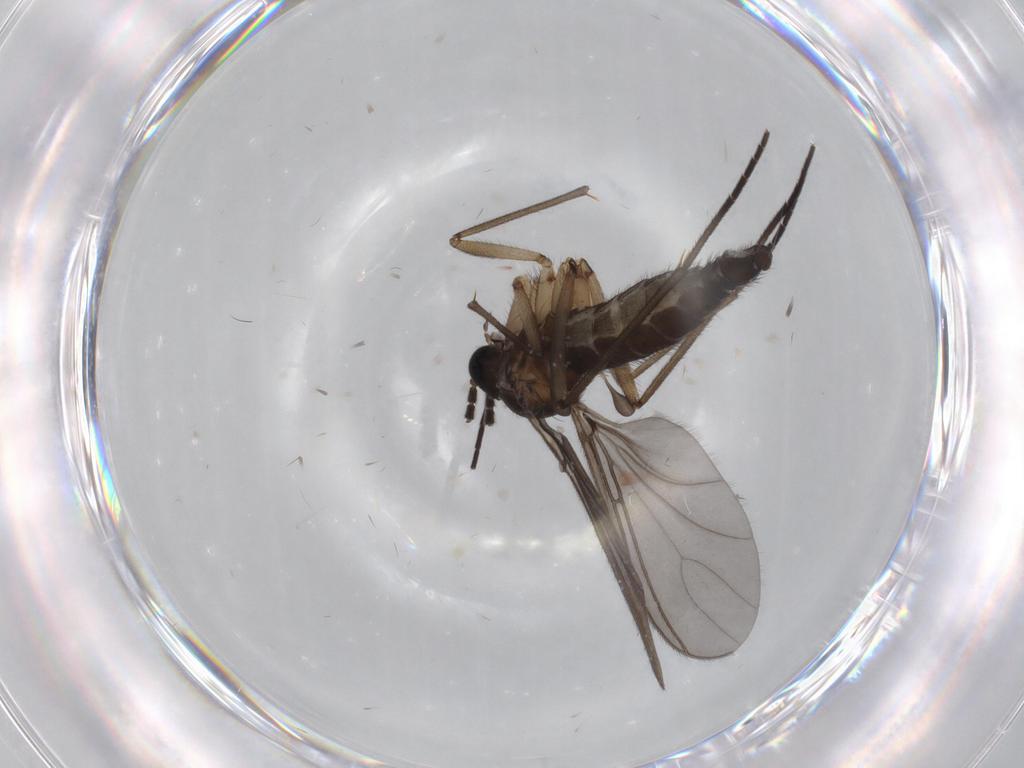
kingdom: Animalia
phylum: Arthropoda
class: Insecta
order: Diptera
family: Sciaridae
